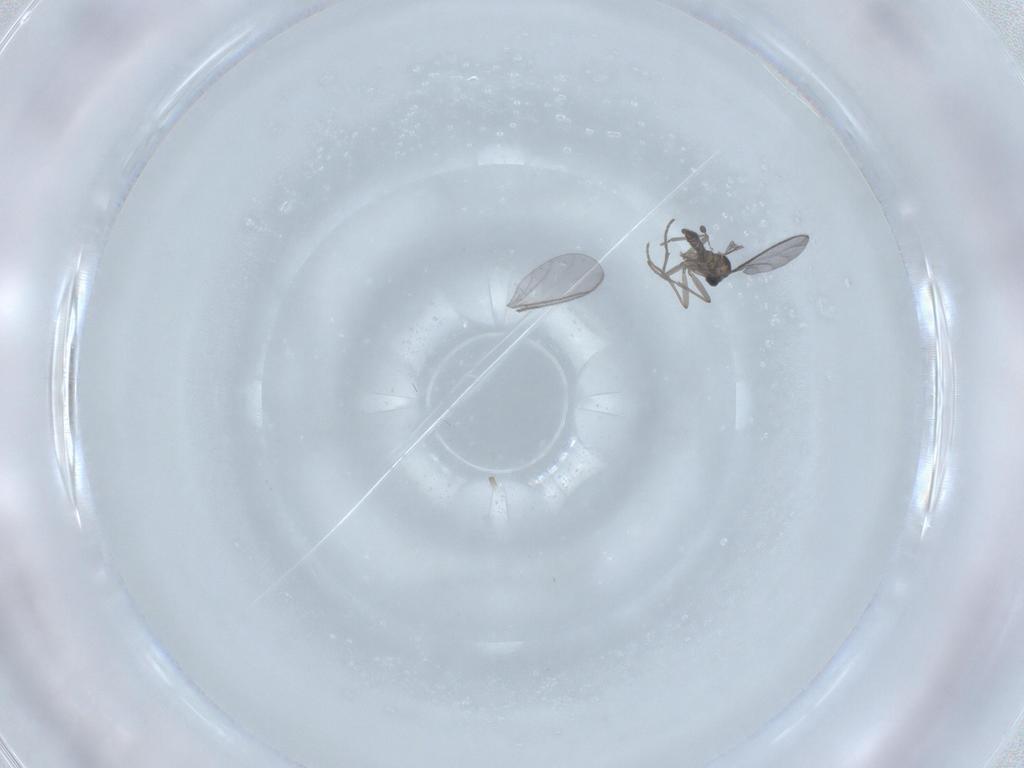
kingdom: Animalia
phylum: Arthropoda
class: Insecta
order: Diptera
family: Sciaridae
